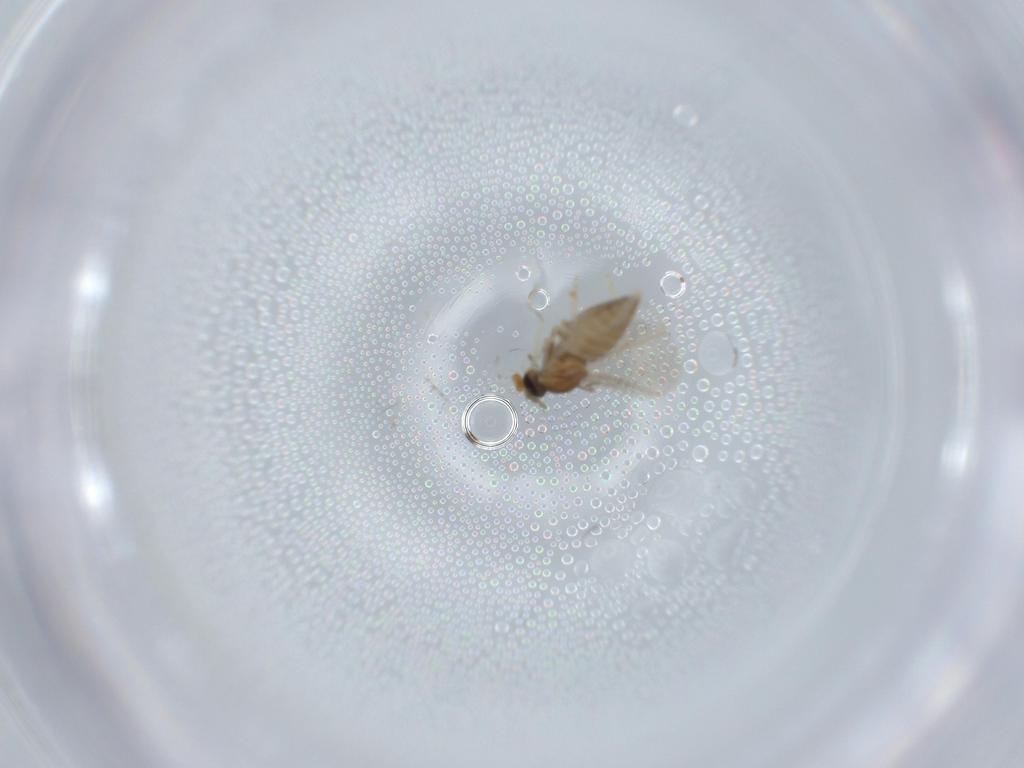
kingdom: Animalia
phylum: Arthropoda
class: Insecta
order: Diptera
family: Cecidomyiidae
